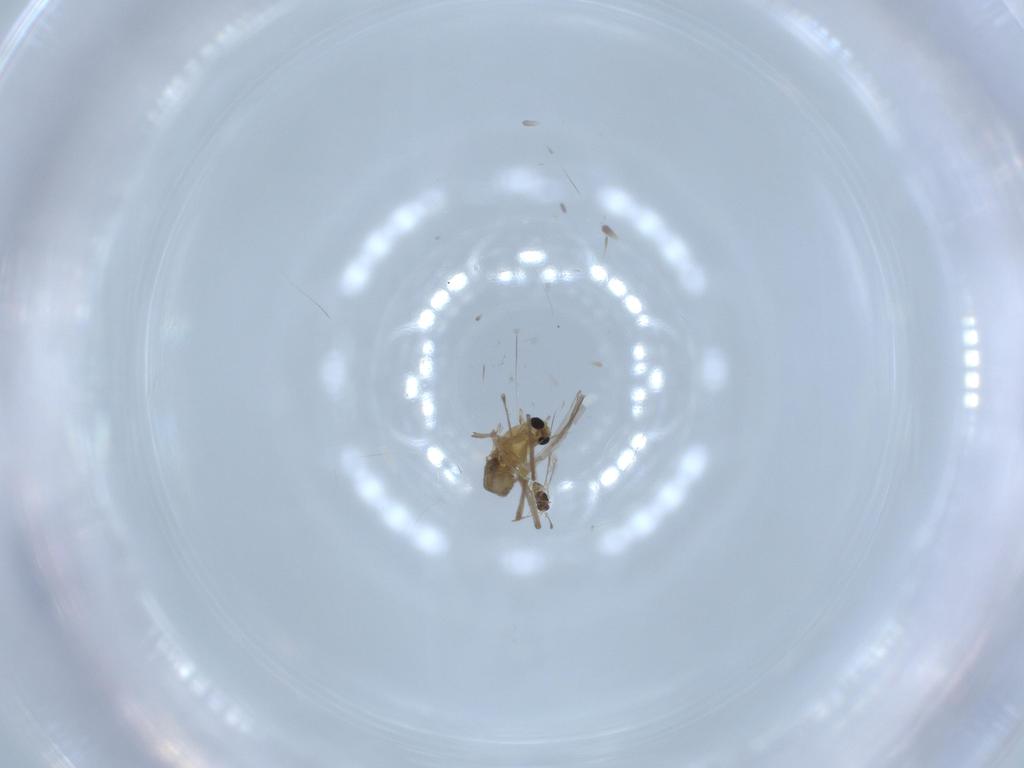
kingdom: Animalia
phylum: Arthropoda
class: Insecta
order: Diptera
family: Chironomidae
